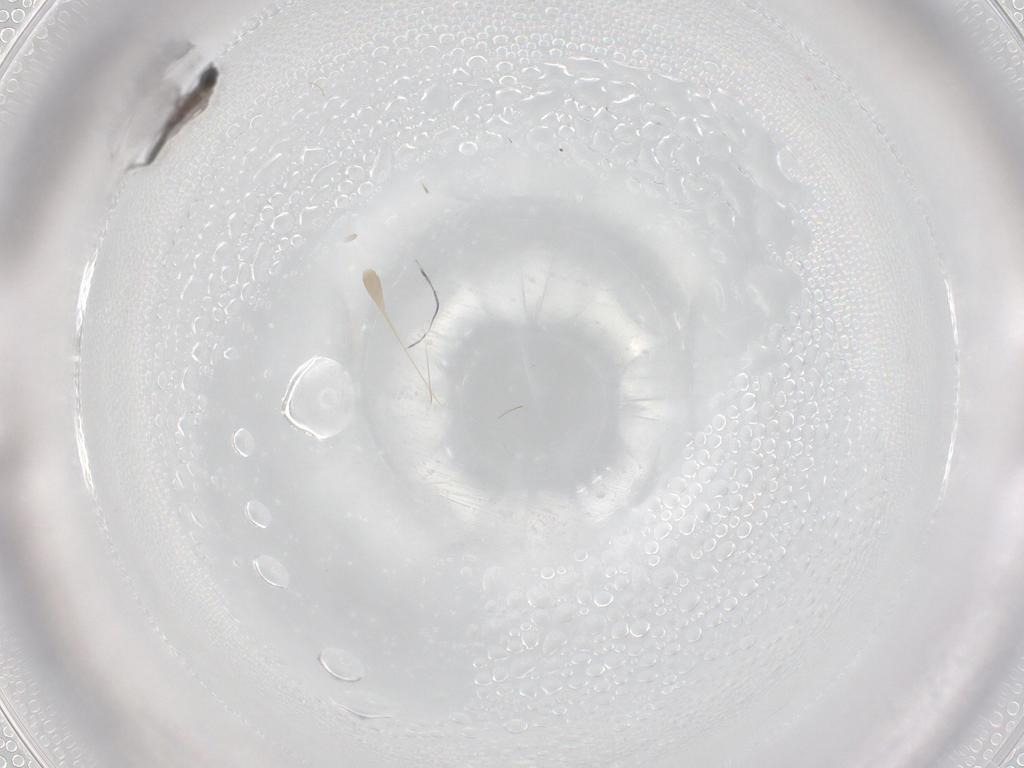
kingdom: Animalia
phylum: Arthropoda
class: Insecta
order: Diptera
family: Sciaridae
